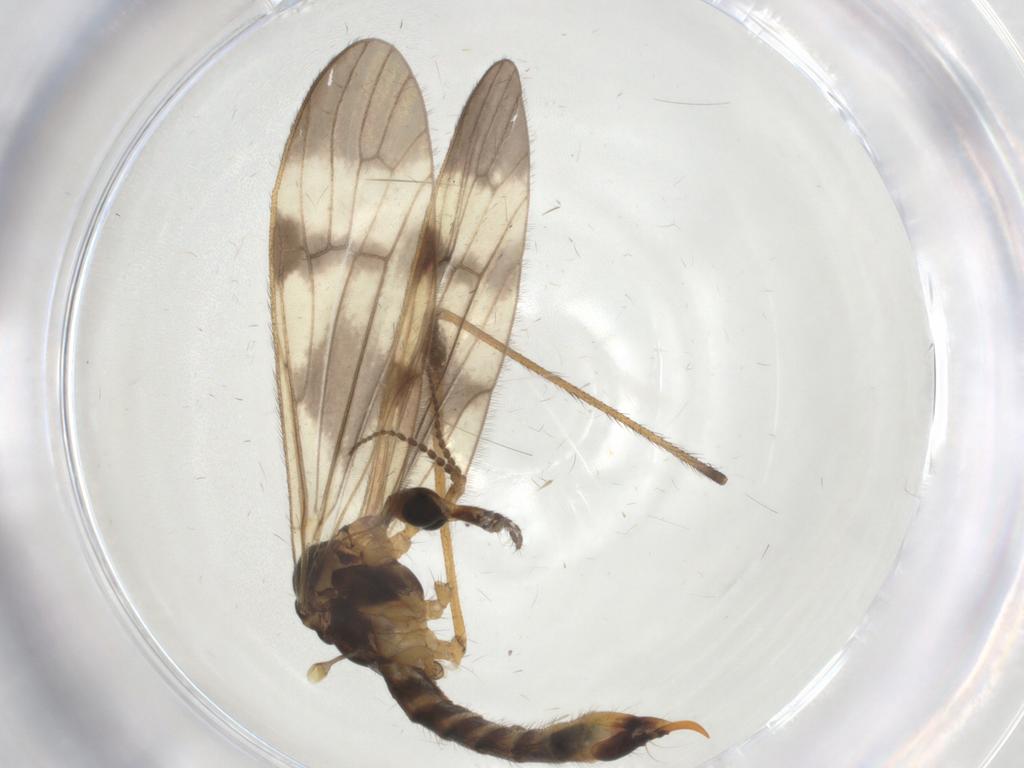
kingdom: Animalia
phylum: Arthropoda
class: Insecta
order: Diptera
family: Limoniidae
